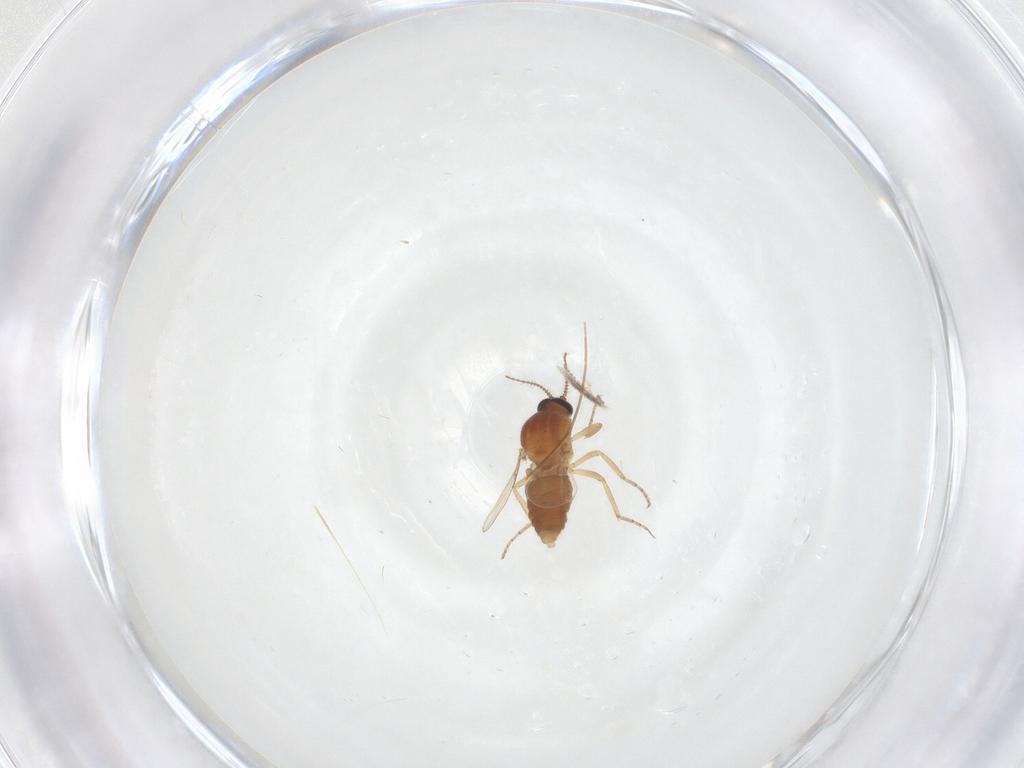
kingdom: Animalia
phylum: Arthropoda
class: Insecta
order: Diptera
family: Ceratopogonidae
